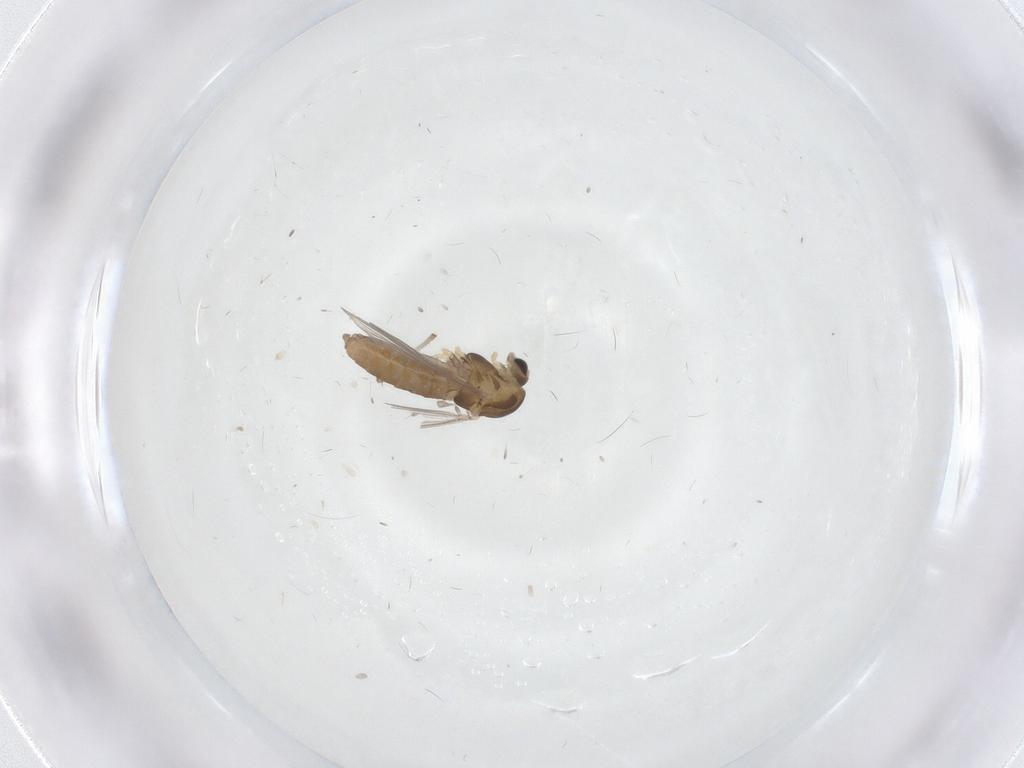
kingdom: Animalia
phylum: Arthropoda
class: Insecta
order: Diptera
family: Chironomidae
